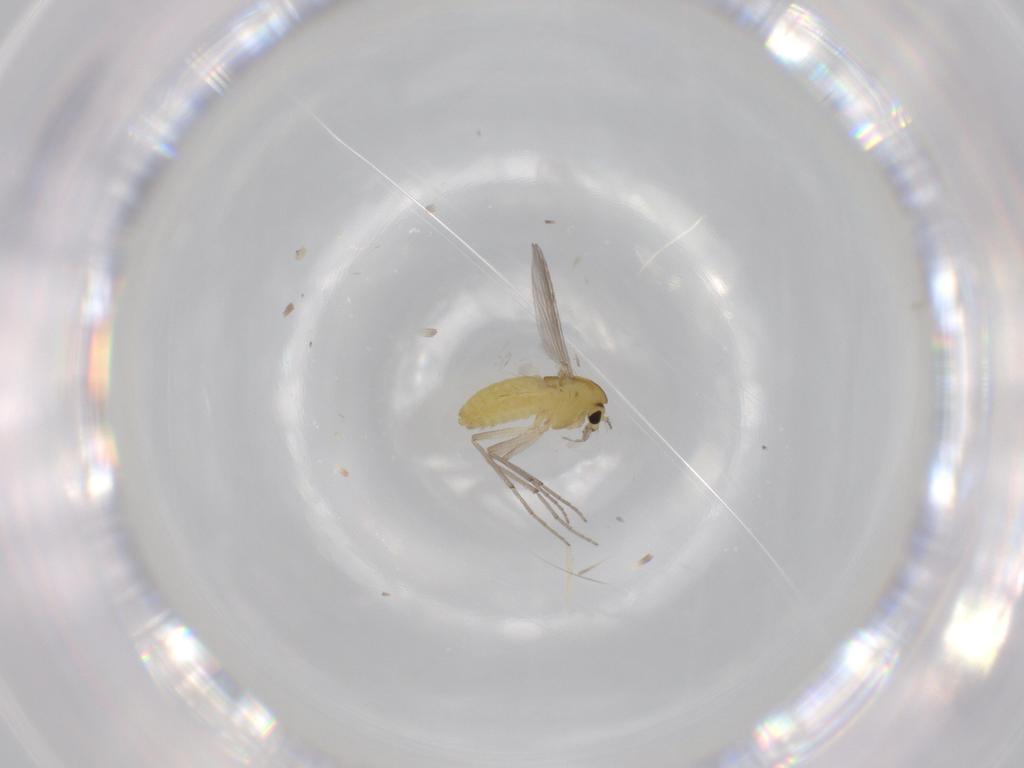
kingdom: Animalia
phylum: Arthropoda
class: Insecta
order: Diptera
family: Chironomidae
